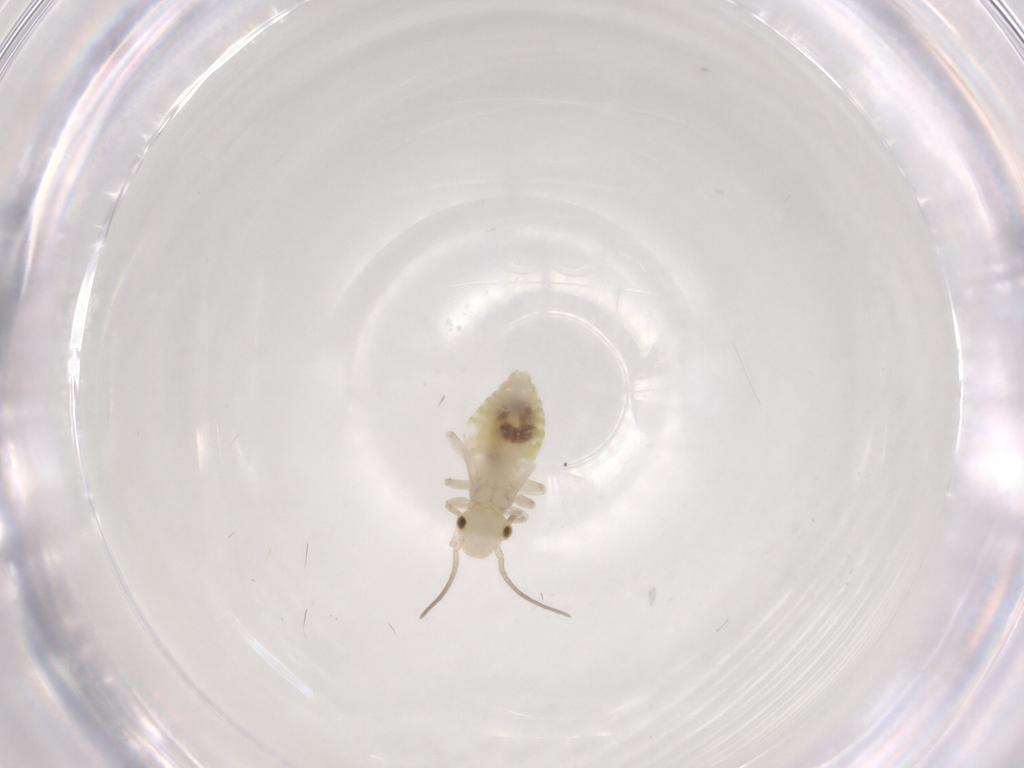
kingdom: Animalia
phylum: Arthropoda
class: Insecta
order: Psocodea
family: Caeciliusidae
